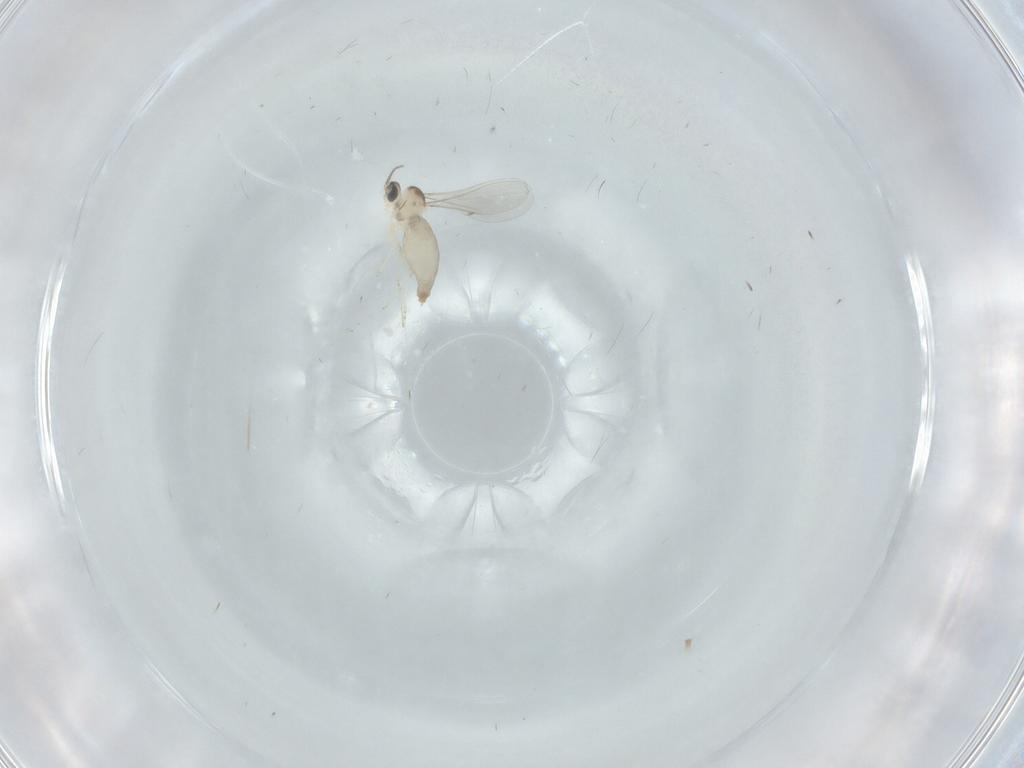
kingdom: Animalia
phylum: Arthropoda
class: Insecta
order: Diptera
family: Cecidomyiidae
